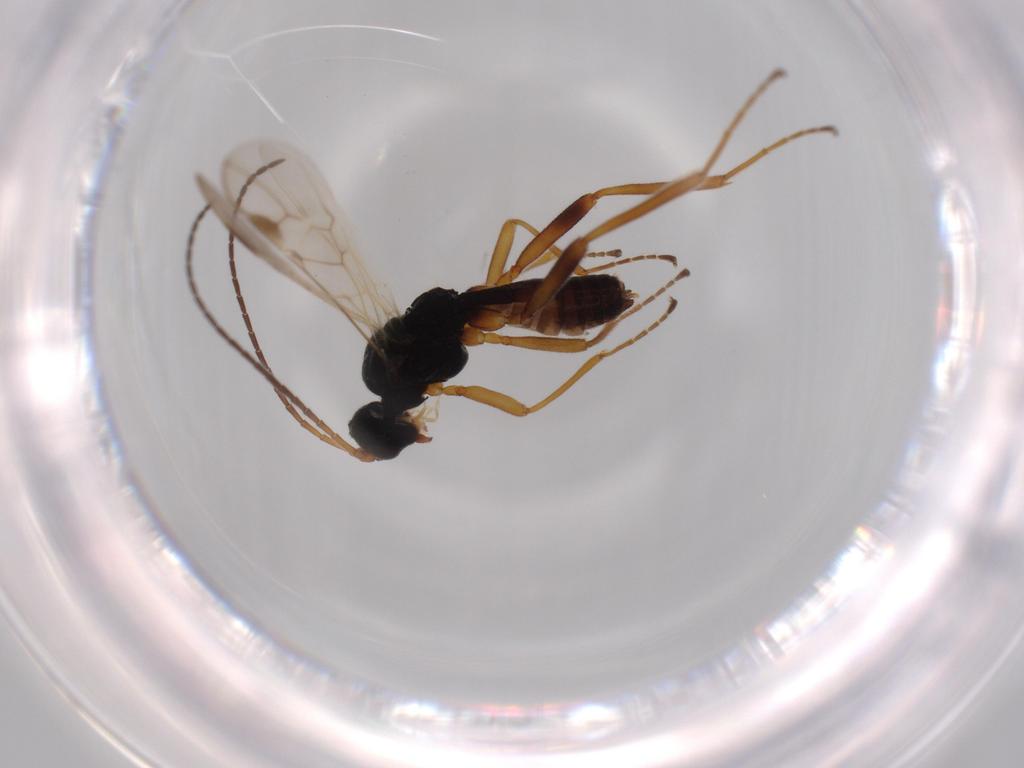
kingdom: Animalia
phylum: Arthropoda
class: Insecta
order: Hymenoptera
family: Braconidae
